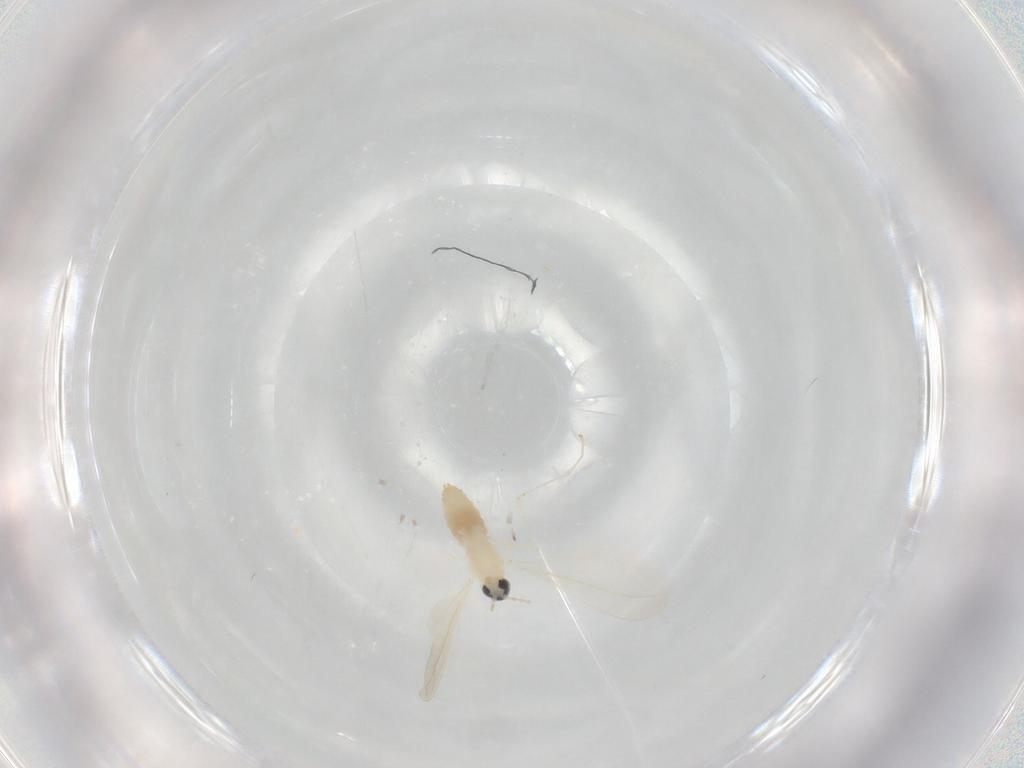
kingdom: Animalia
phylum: Arthropoda
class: Insecta
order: Diptera
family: Cecidomyiidae
